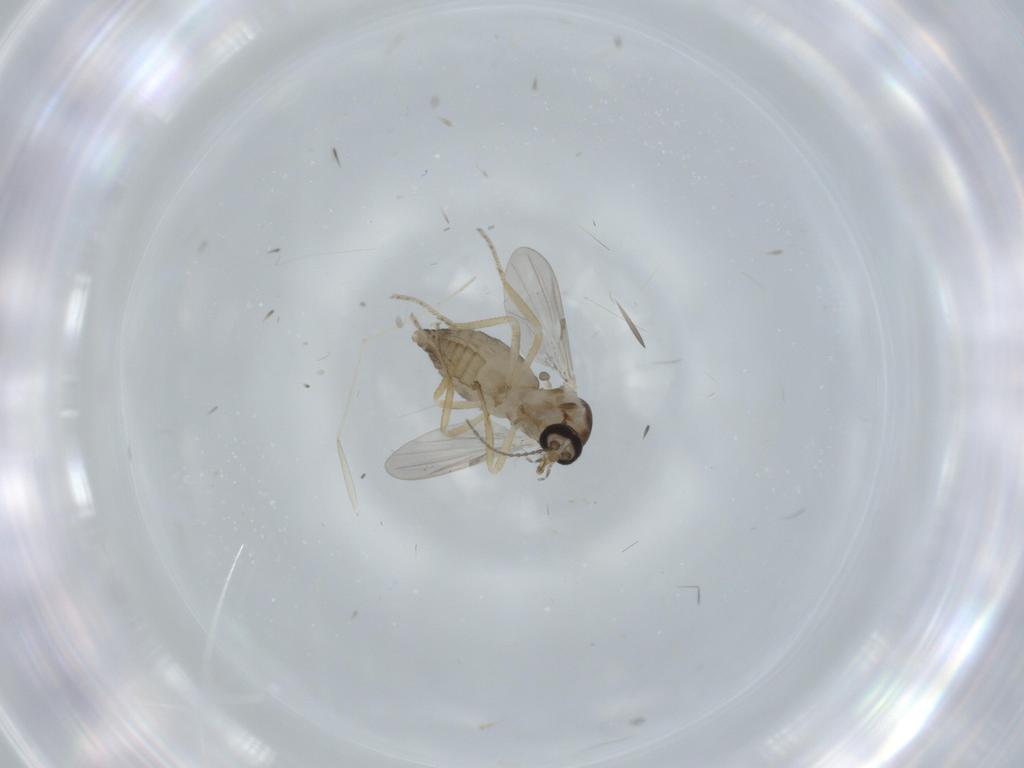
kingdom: Animalia
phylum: Arthropoda
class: Insecta
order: Diptera
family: Ceratopogonidae
